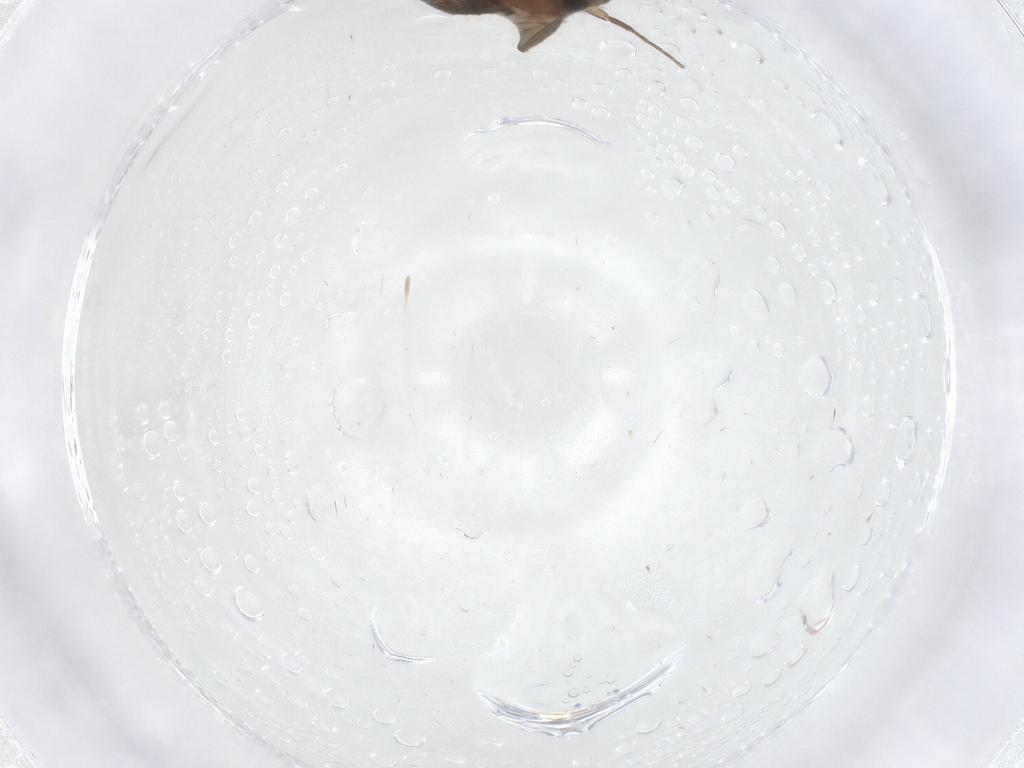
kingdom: Animalia
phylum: Arthropoda
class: Insecta
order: Diptera
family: Phoridae
